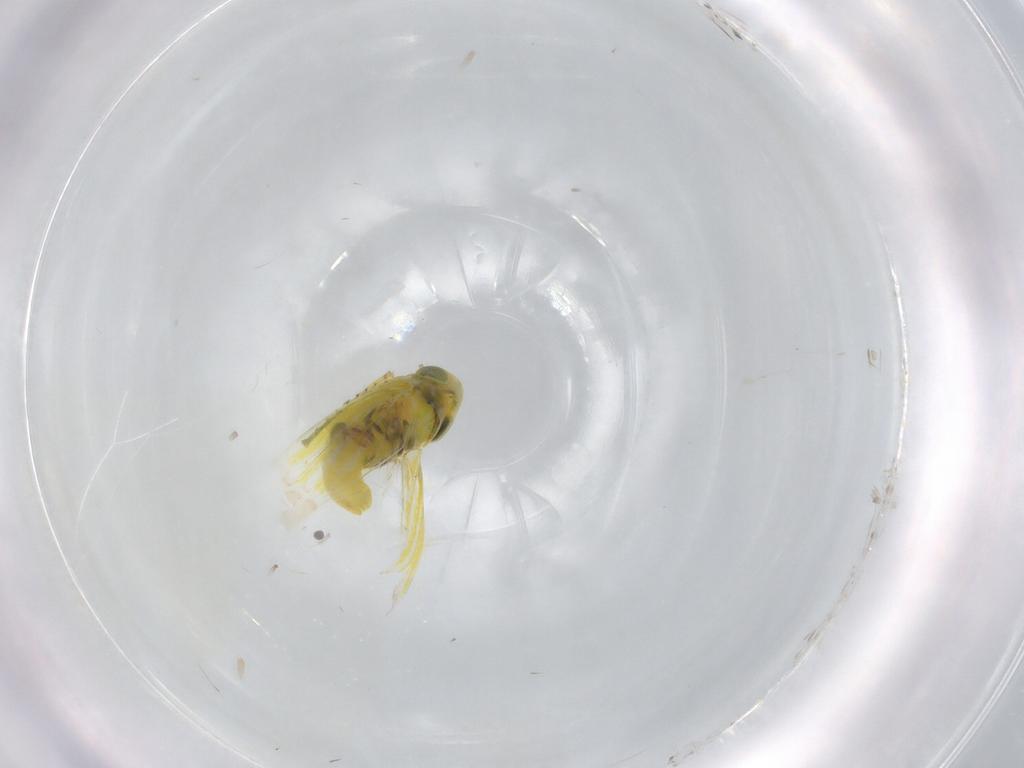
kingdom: Animalia
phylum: Arthropoda
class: Insecta
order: Hemiptera
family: Cicadellidae
